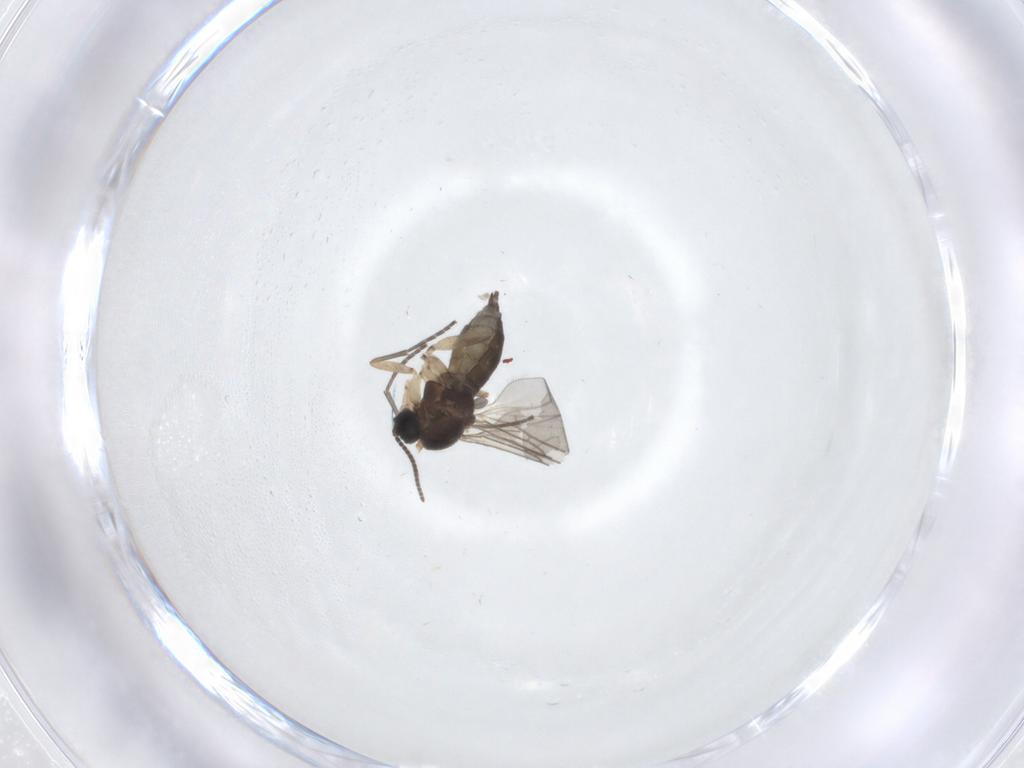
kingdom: Animalia
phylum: Arthropoda
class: Insecta
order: Diptera
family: Sciaridae
